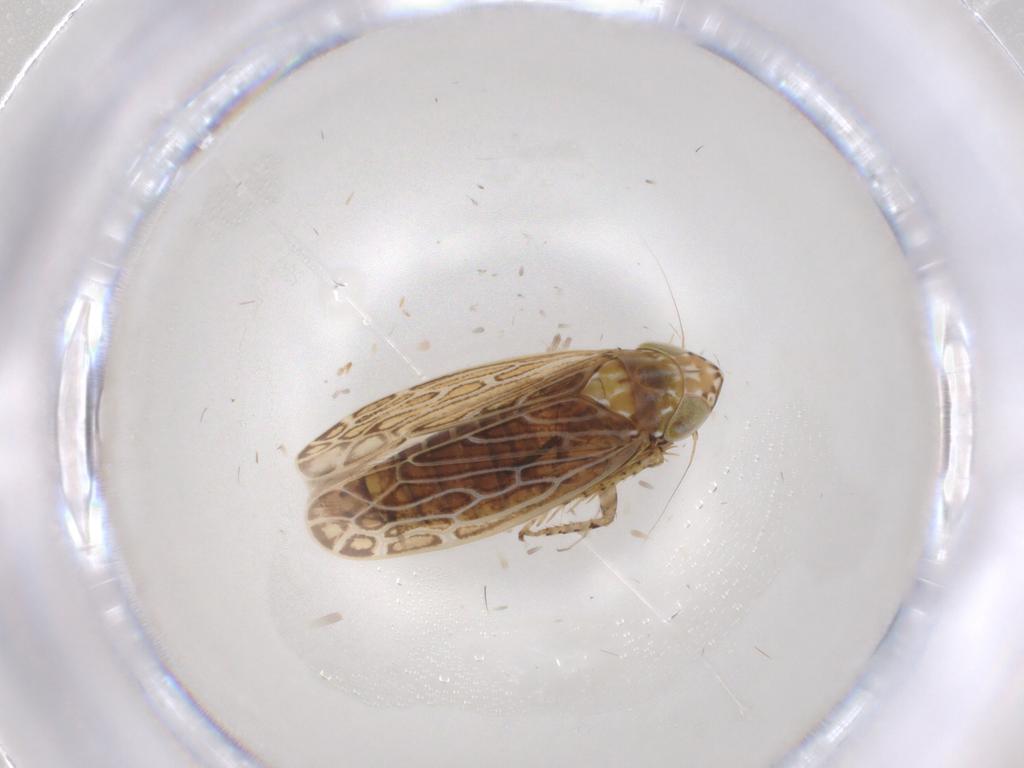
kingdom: Animalia
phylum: Arthropoda
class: Insecta
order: Hemiptera
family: Cicadellidae
